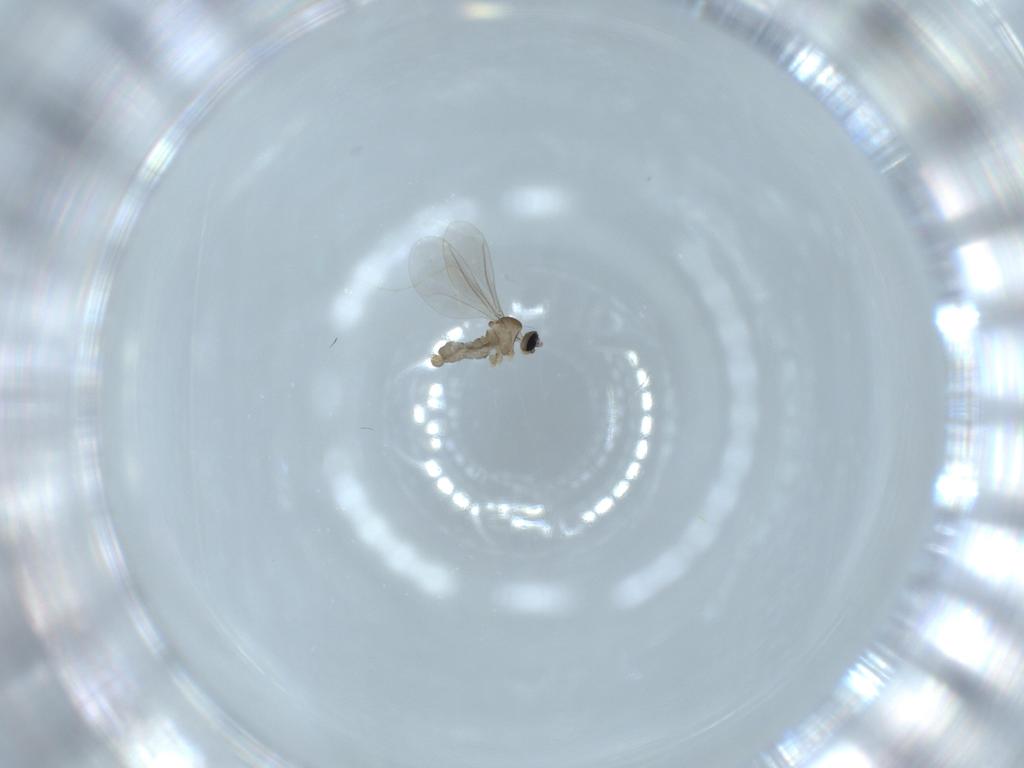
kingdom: Animalia
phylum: Arthropoda
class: Insecta
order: Diptera
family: Cecidomyiidae
